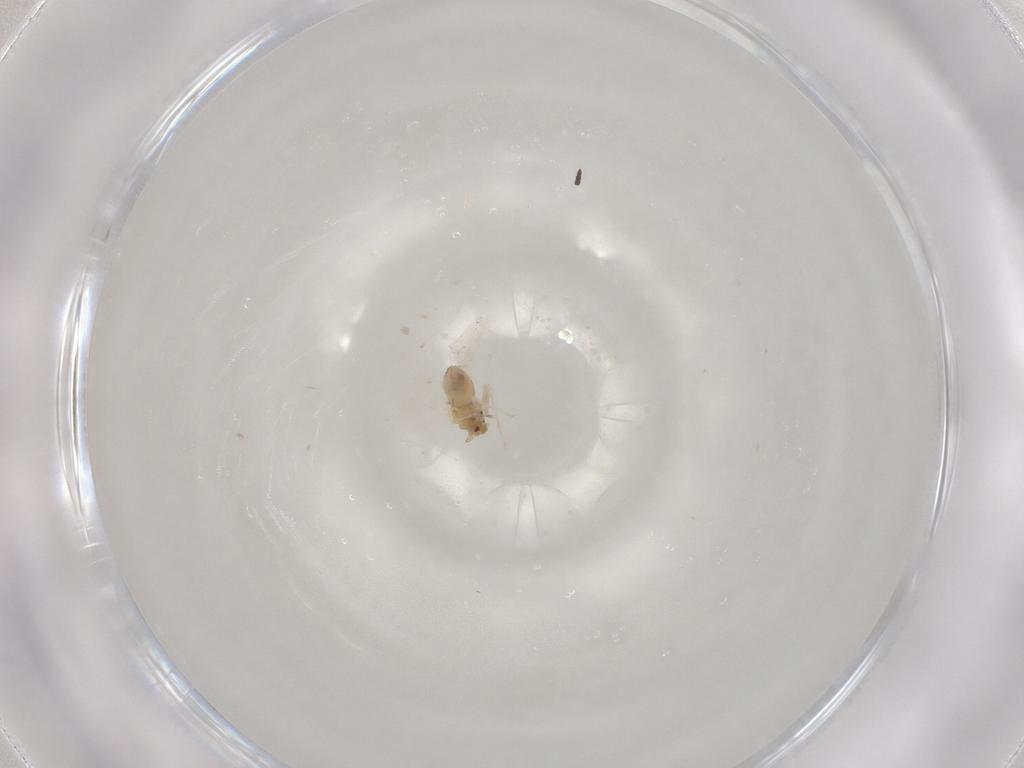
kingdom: Animalia
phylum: Arthropoda
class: Insecta
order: Hemiptera
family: Aleyrodidae
